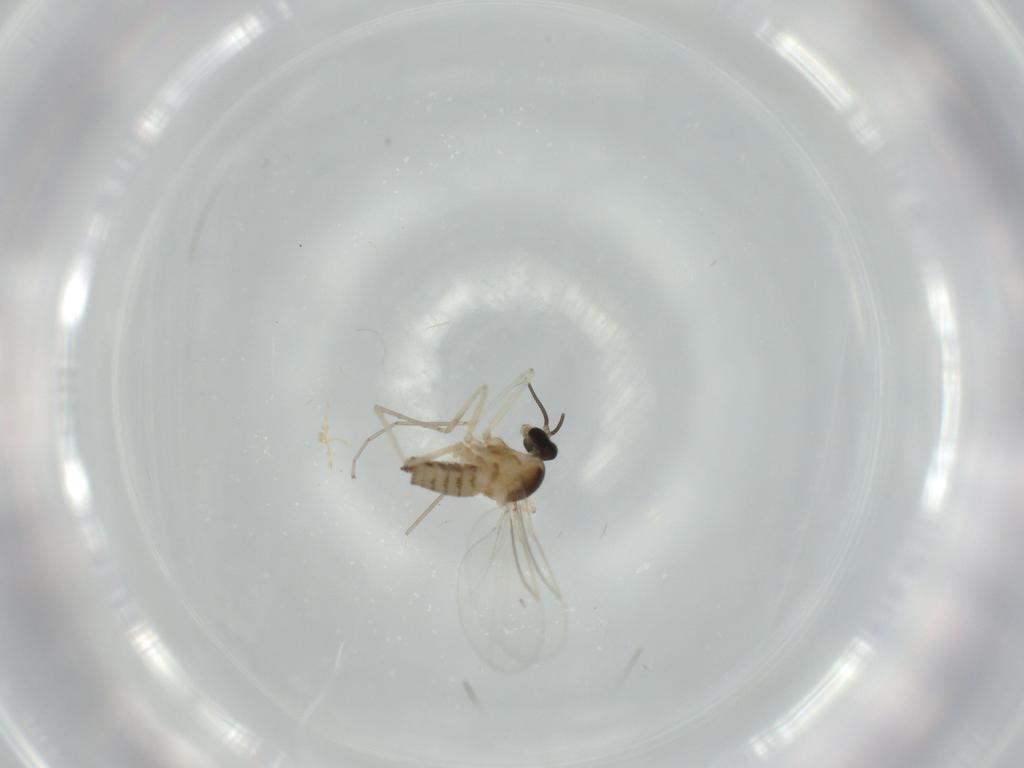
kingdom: Animalia
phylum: Arthropoda
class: Insecta
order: Diptera
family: Cecidomyiidae
